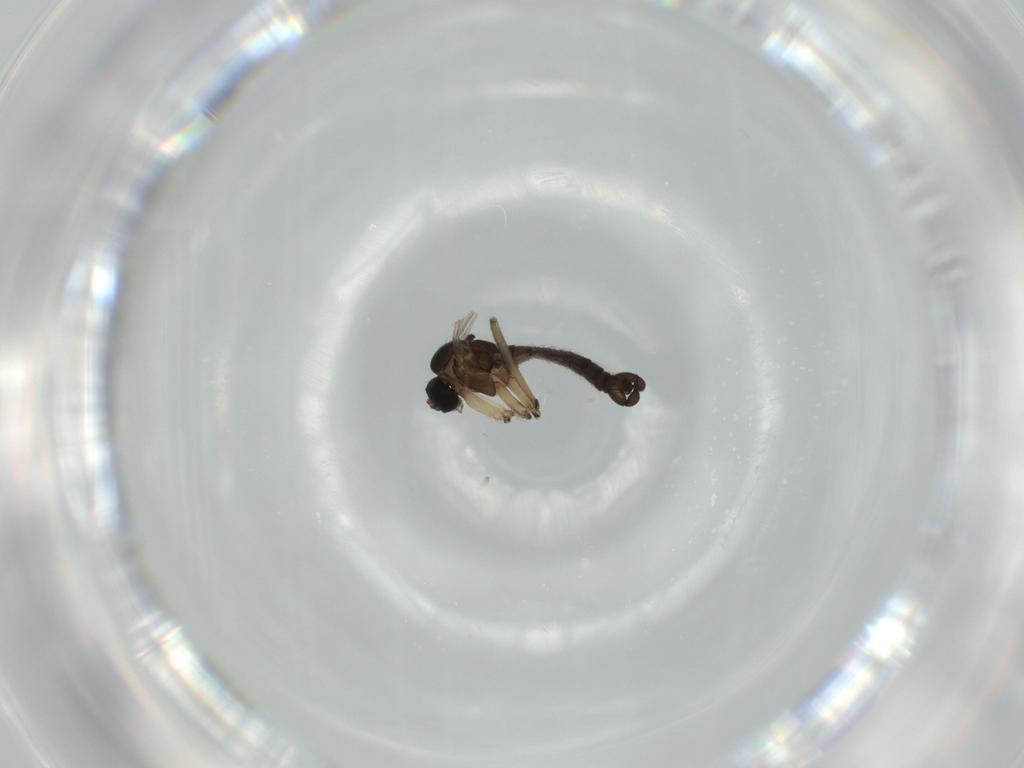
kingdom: Animalia
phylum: Arthropoda
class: Insecta
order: Diptera
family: Sciaridae
